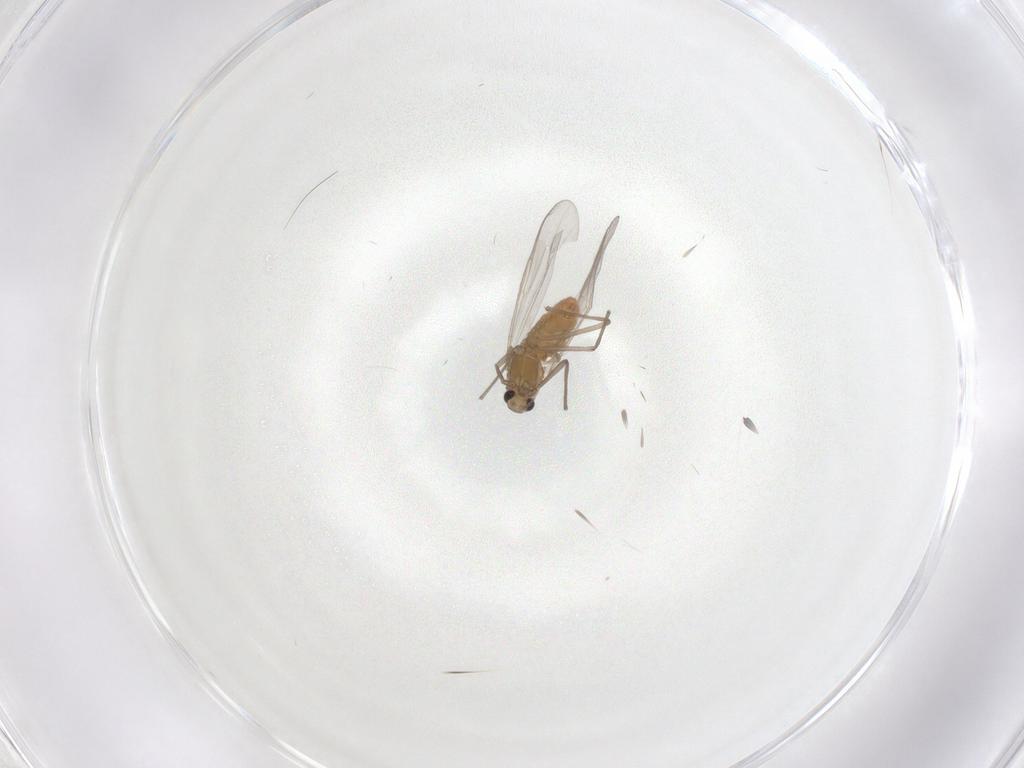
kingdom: Animalia
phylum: Arthropoda
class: Insecta
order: Diptera
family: Chironomidae
